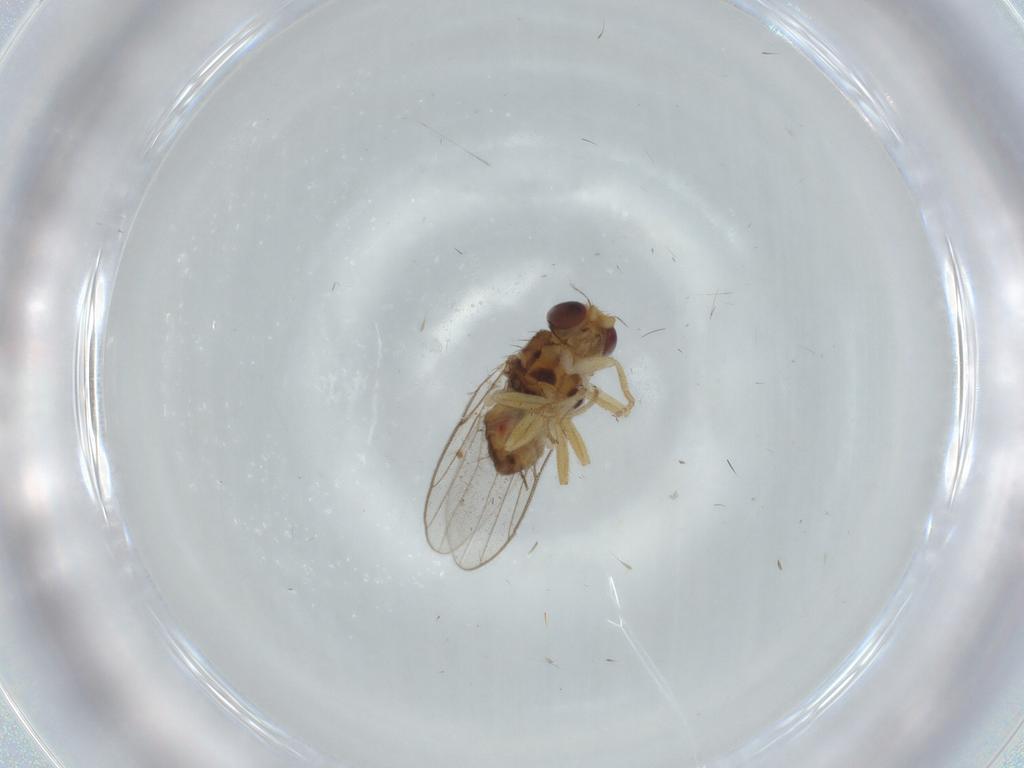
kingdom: Animalia
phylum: Arthropoda
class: Insecta
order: Diptera
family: Chloropidae
